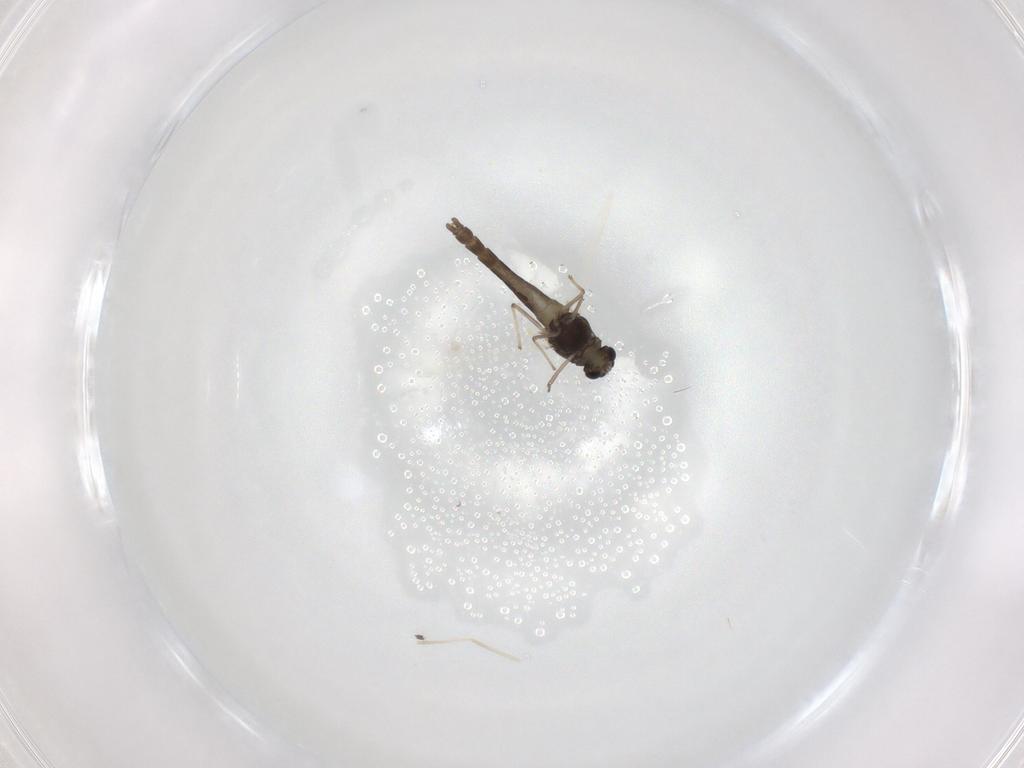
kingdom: Animalia
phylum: Arthropoda
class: Insecta
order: Diptera
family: Chironomidae
